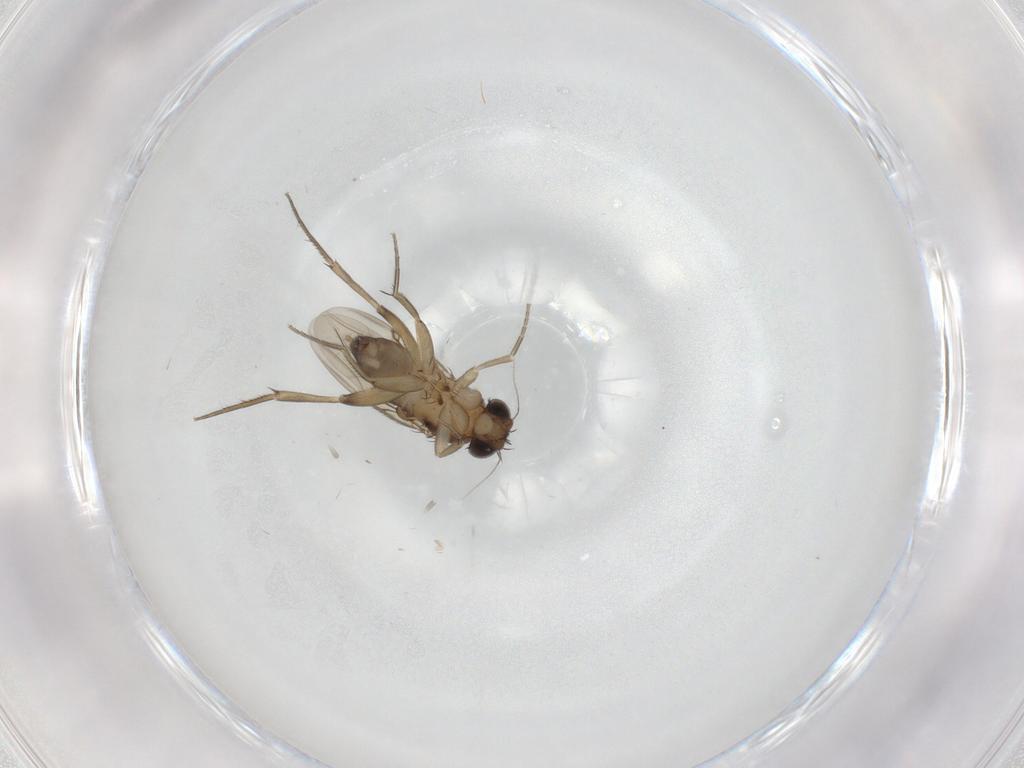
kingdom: Animalia
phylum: Arthropoda
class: Insecta
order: Diptera
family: Phoridae
